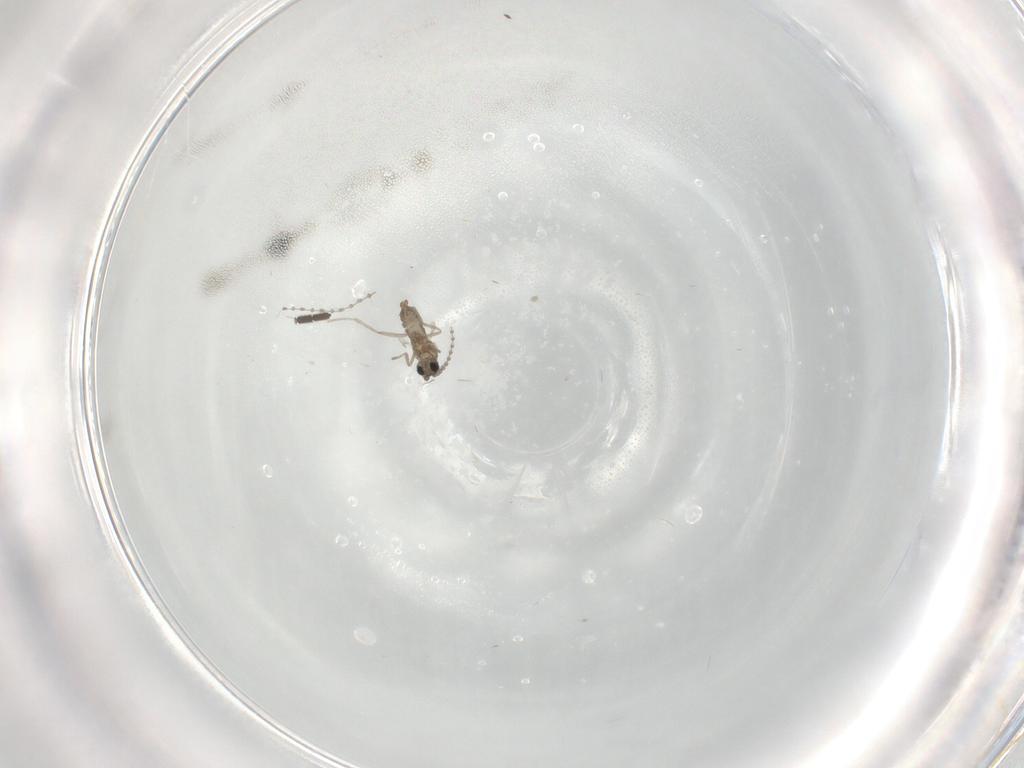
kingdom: Animalia
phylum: Arthropoda
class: Insecta
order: Diptera
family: Cecidomyiidae
